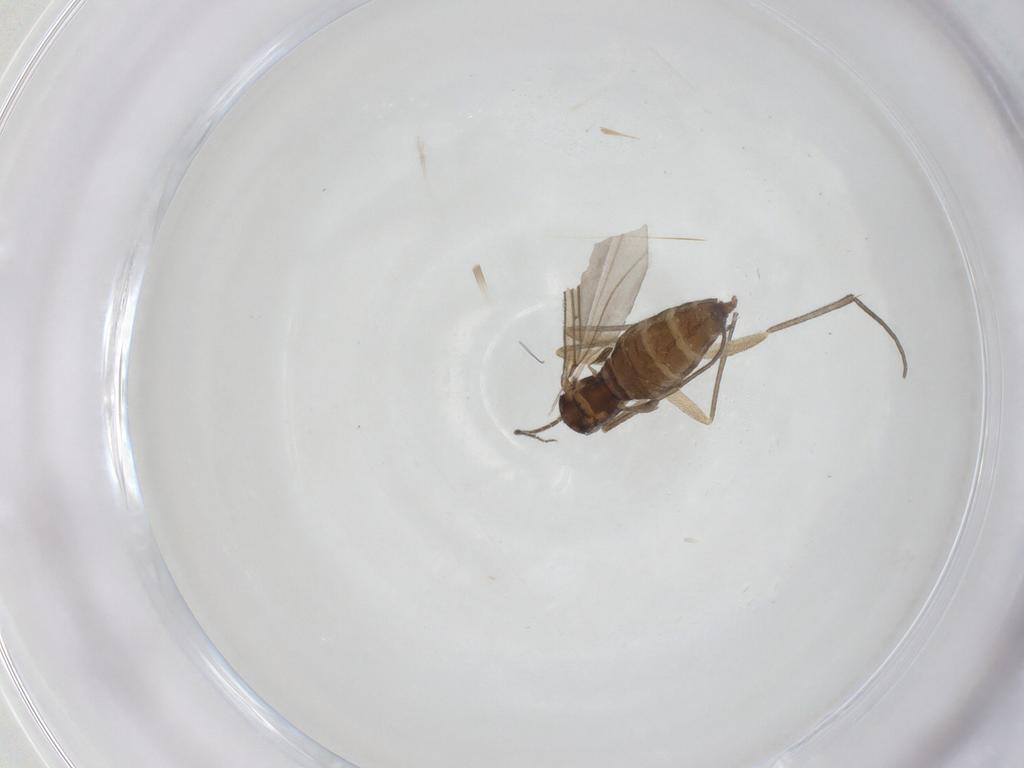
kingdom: Animalia
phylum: Arthropoda
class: Insecta
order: Diptera
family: Sciaridae
